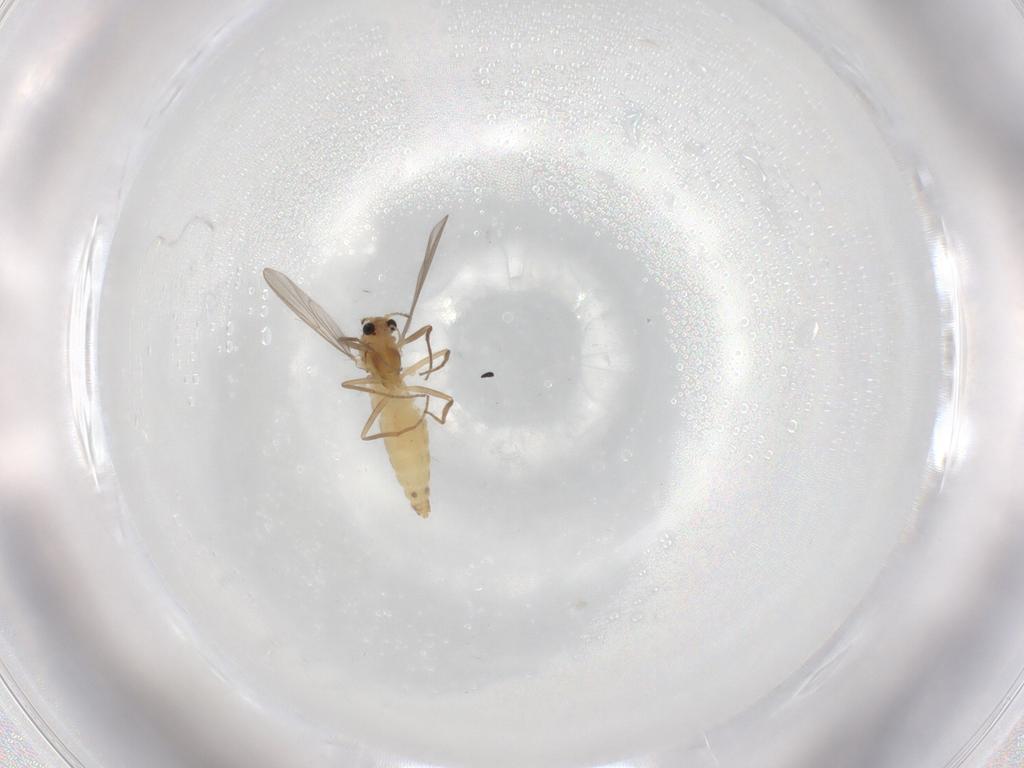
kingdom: Animalia
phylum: Arthropoda
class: Insecta
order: Diptera
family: Chironomidae
